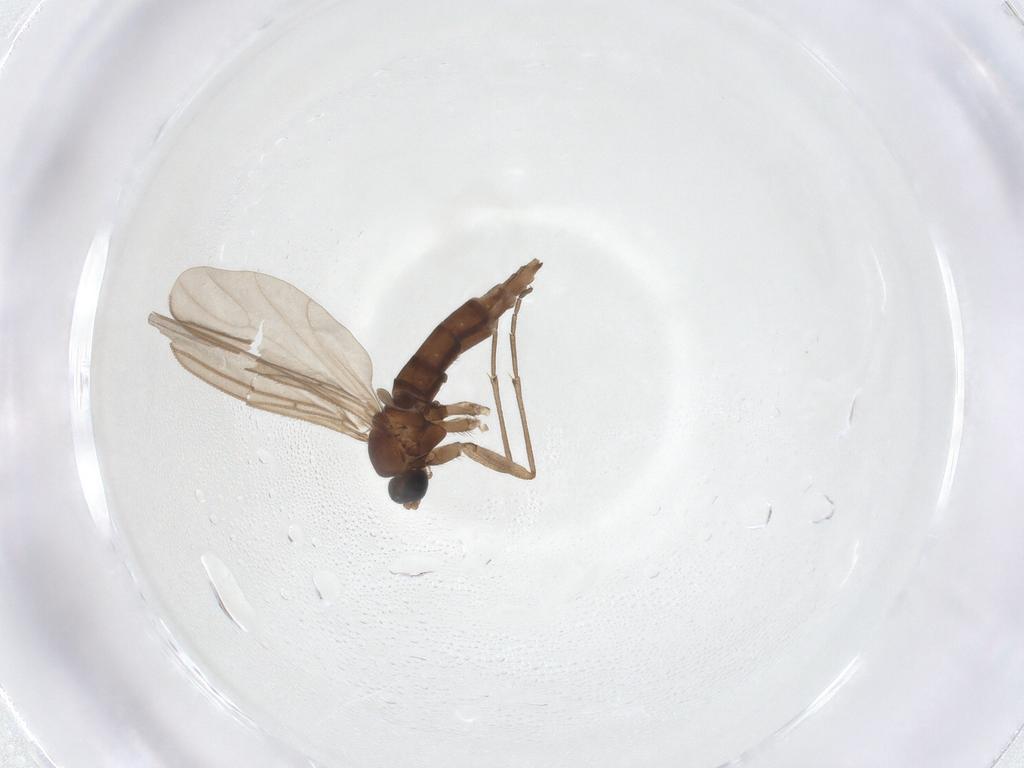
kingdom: Animalia
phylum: Arthropoda
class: Insecta
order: Diptera
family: Sciaridae
